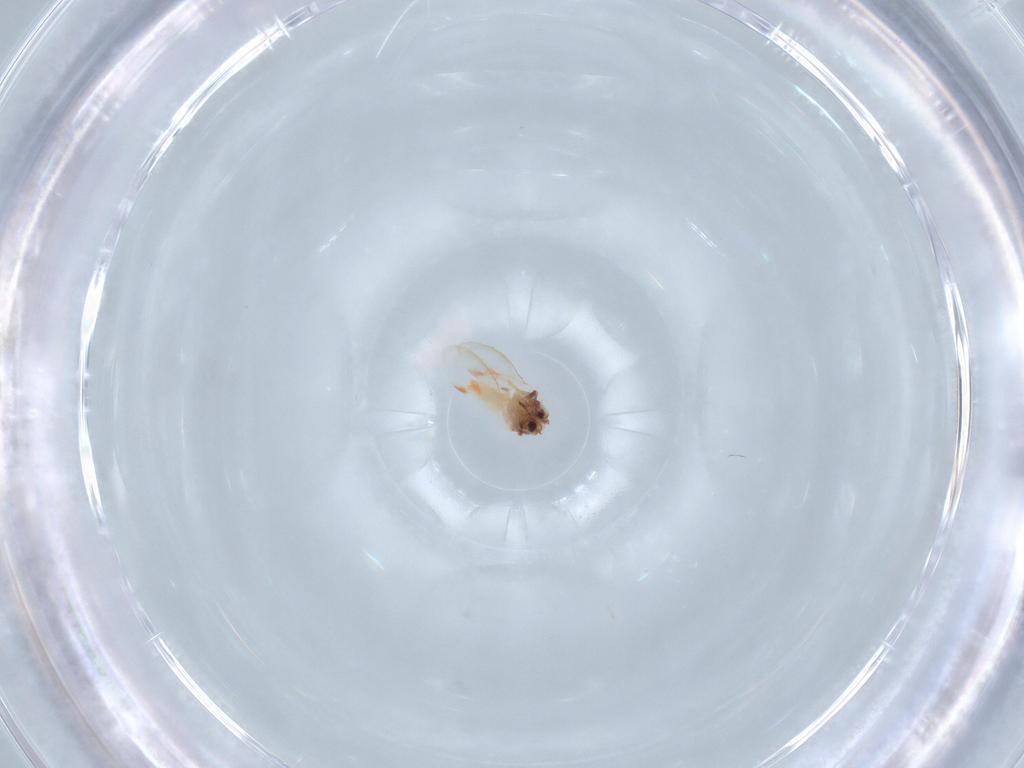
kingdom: Animalia
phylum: Arthropoda
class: Insecta
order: Hemiptera
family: Aleyrodidae
